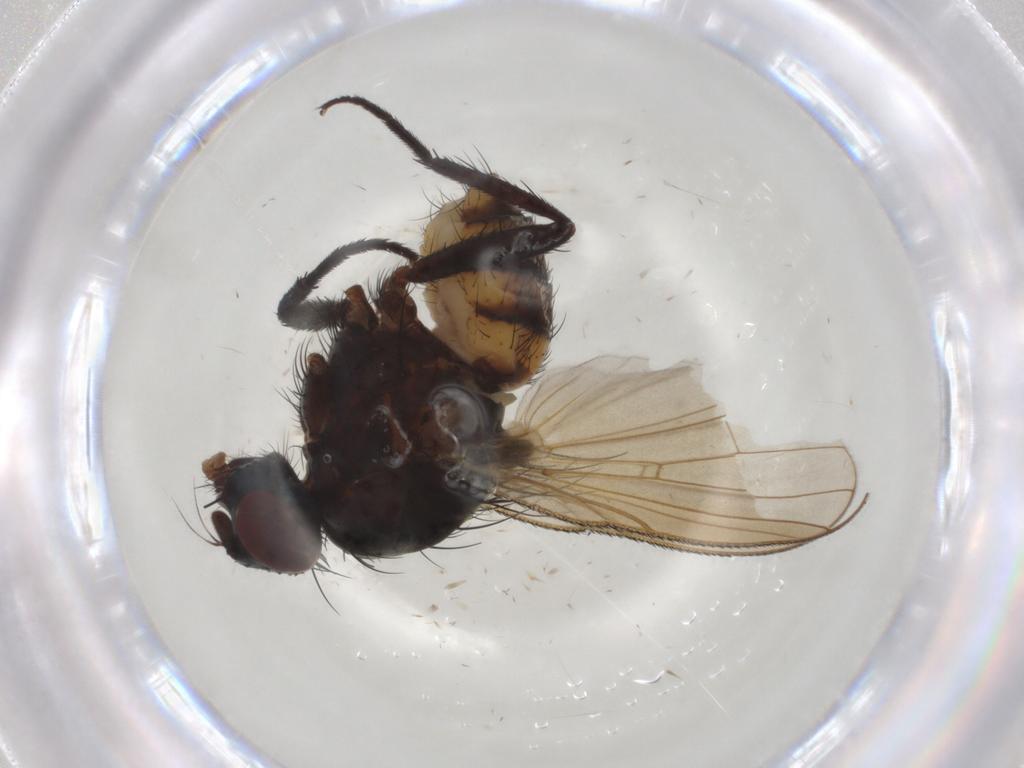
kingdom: Animalia
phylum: Arthropoda
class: Insecta
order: Diptera
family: Anthomyiidae
